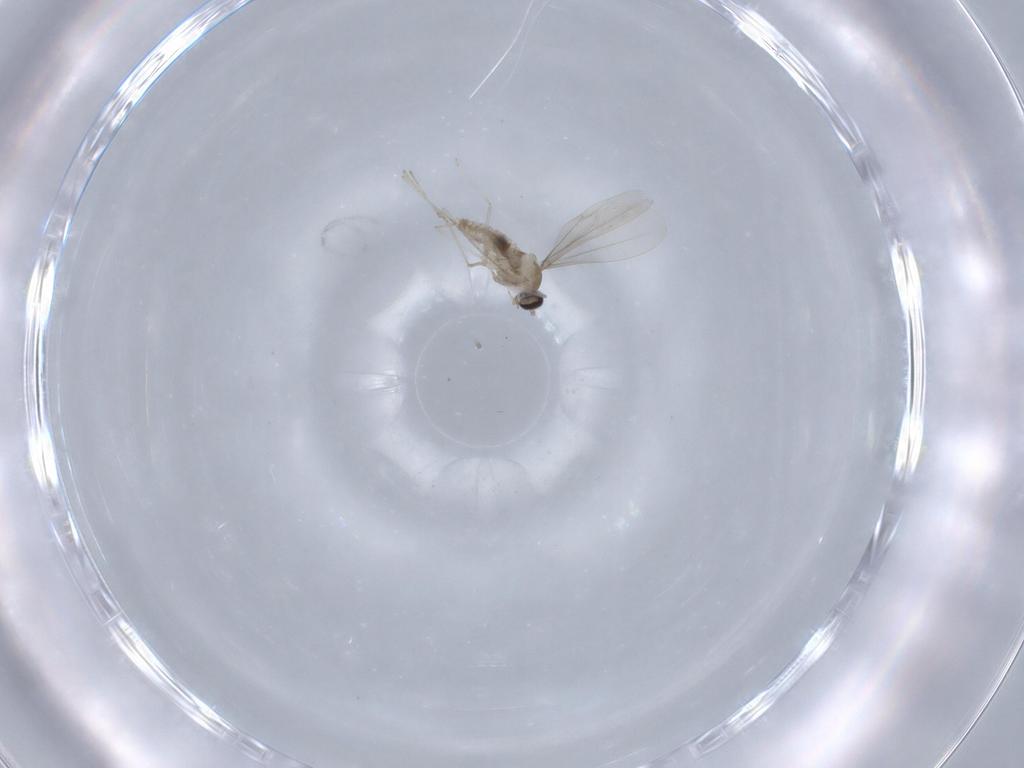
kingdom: Animalia
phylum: Arthropoda
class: Insecta
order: Diptera
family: Cecidomyiidae
